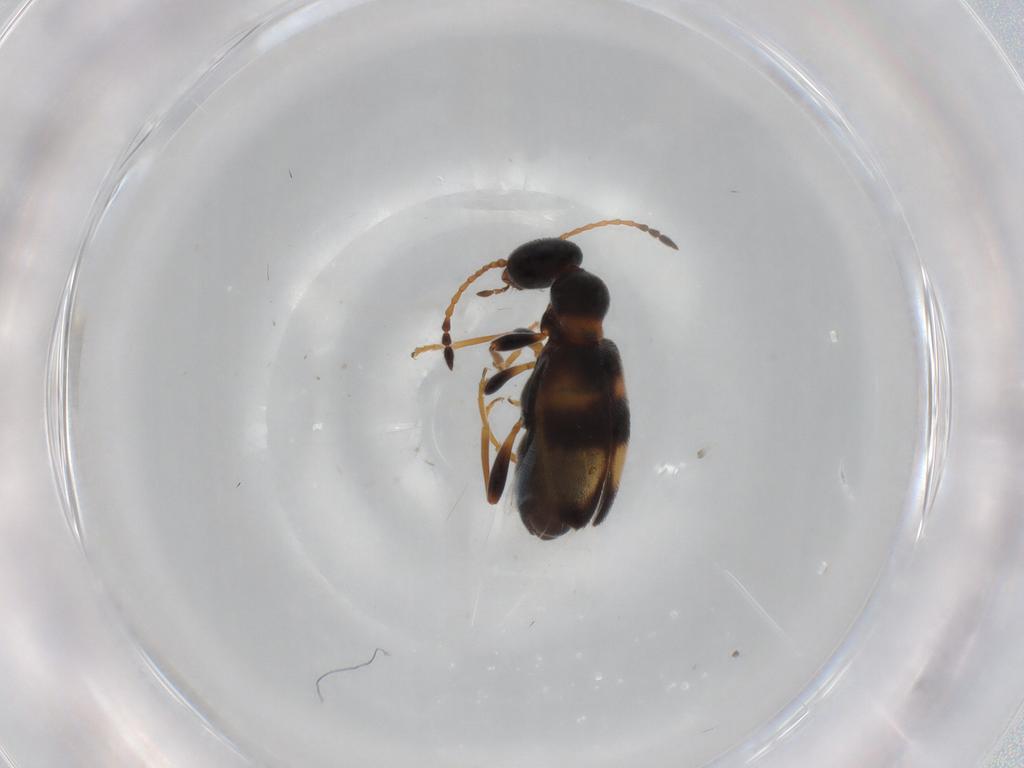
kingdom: Animalia
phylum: Arthropoda
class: Insecta
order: Coleoptera
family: Anthicidae
